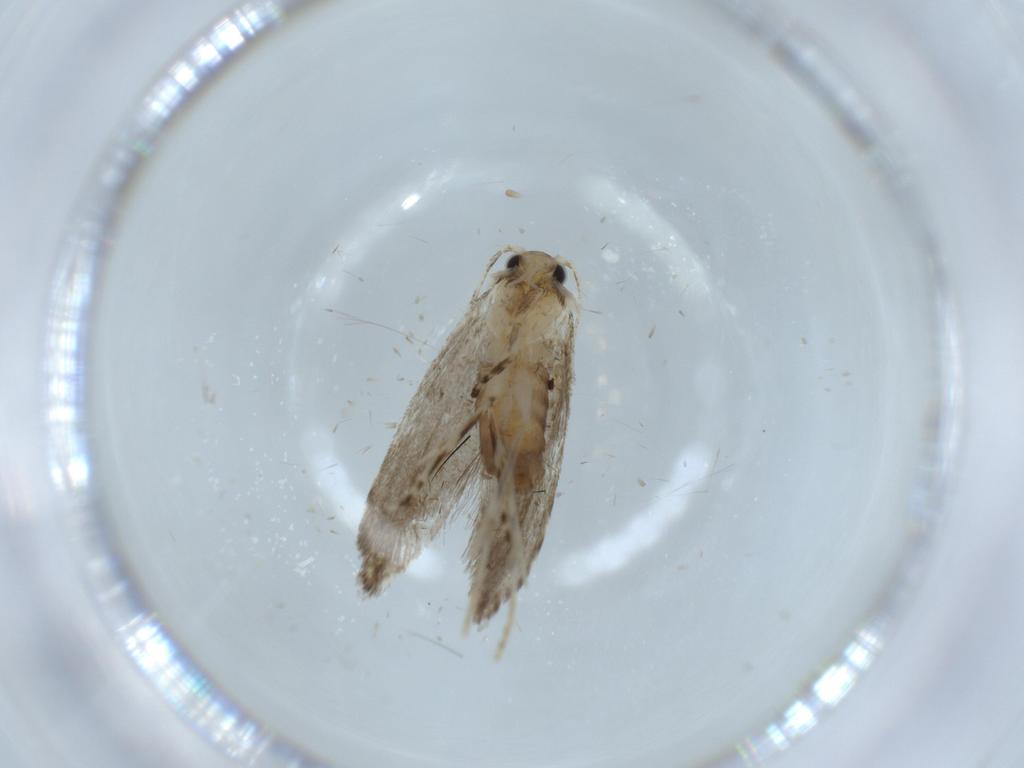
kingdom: Animalia
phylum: Arthropoda
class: Insecta
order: Lepidoptera
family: Tineidae
